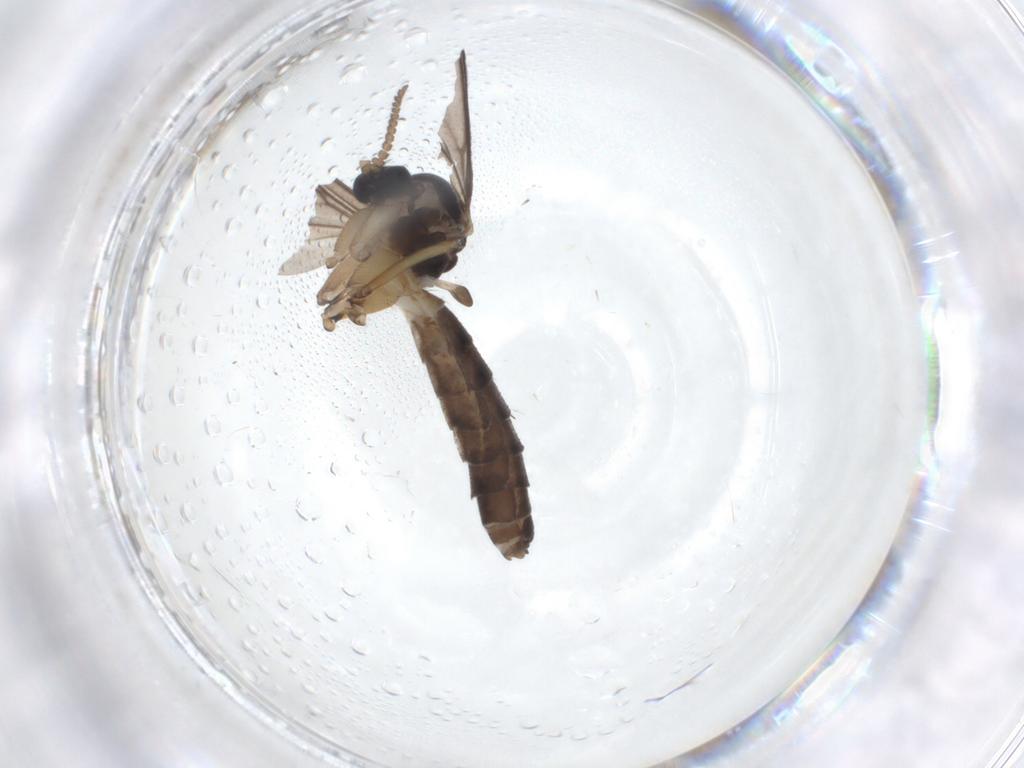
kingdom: Animalia
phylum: Arthropoda
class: Insecta
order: Diptera
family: Mycetophilidae
